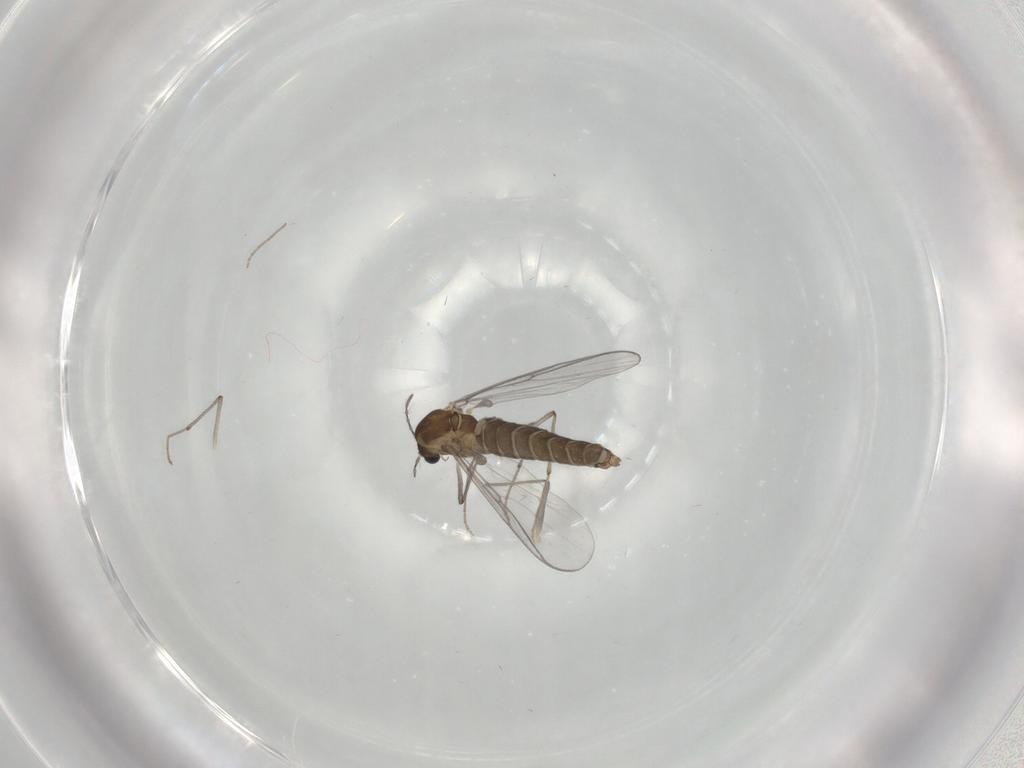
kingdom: Animalia
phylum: Arthropoda
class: Insecta
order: Diptera
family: Chironomidae
